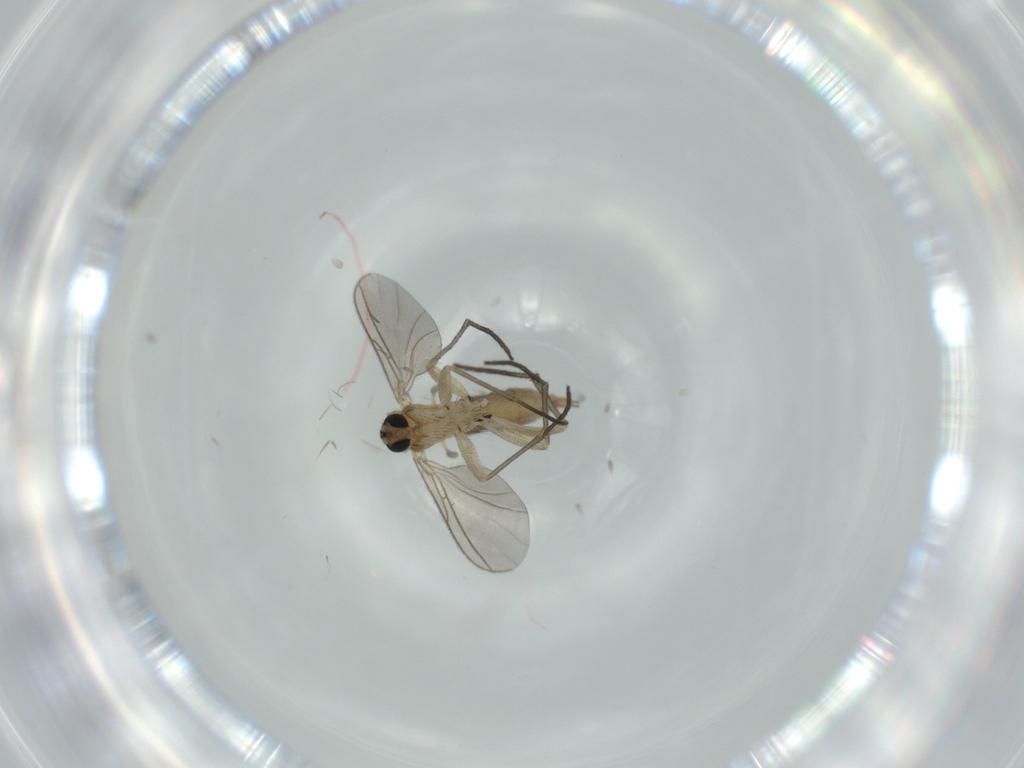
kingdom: Animalia
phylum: Arthropoda
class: Insecta
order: Diptera
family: Sciaridae
